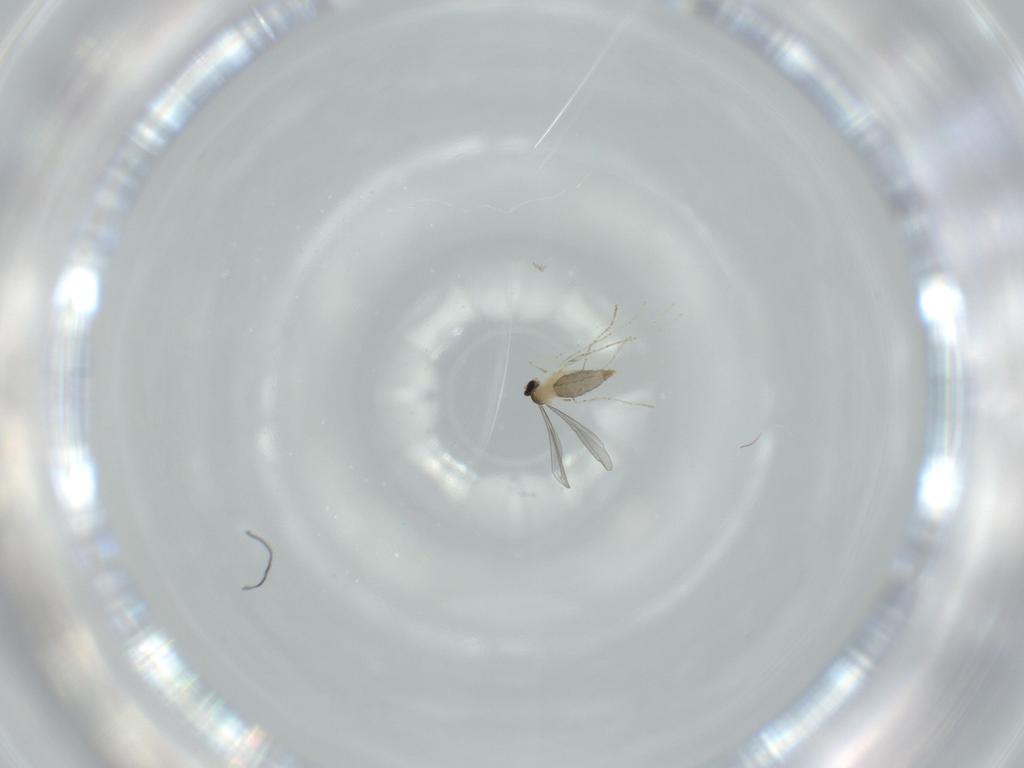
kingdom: Animalia
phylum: Arthropoda
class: Insecta
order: Diptera
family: Cecidomyiidae
